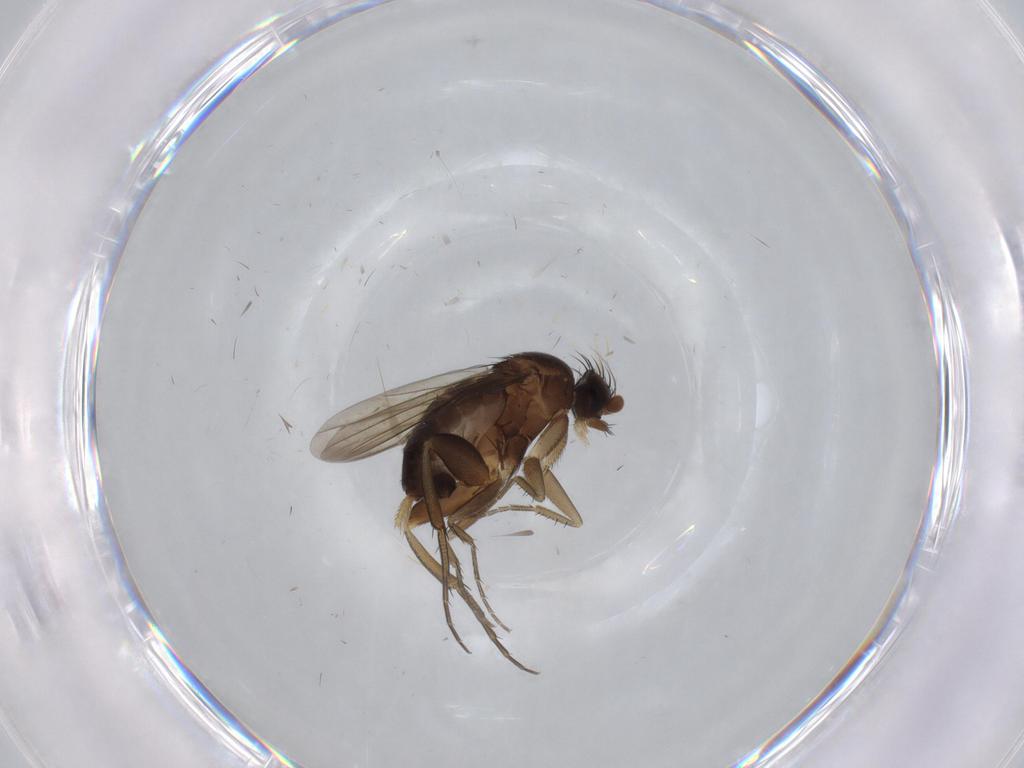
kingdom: Animalia
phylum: Arthropoda
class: Insecta
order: Diptera
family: Phoridae
